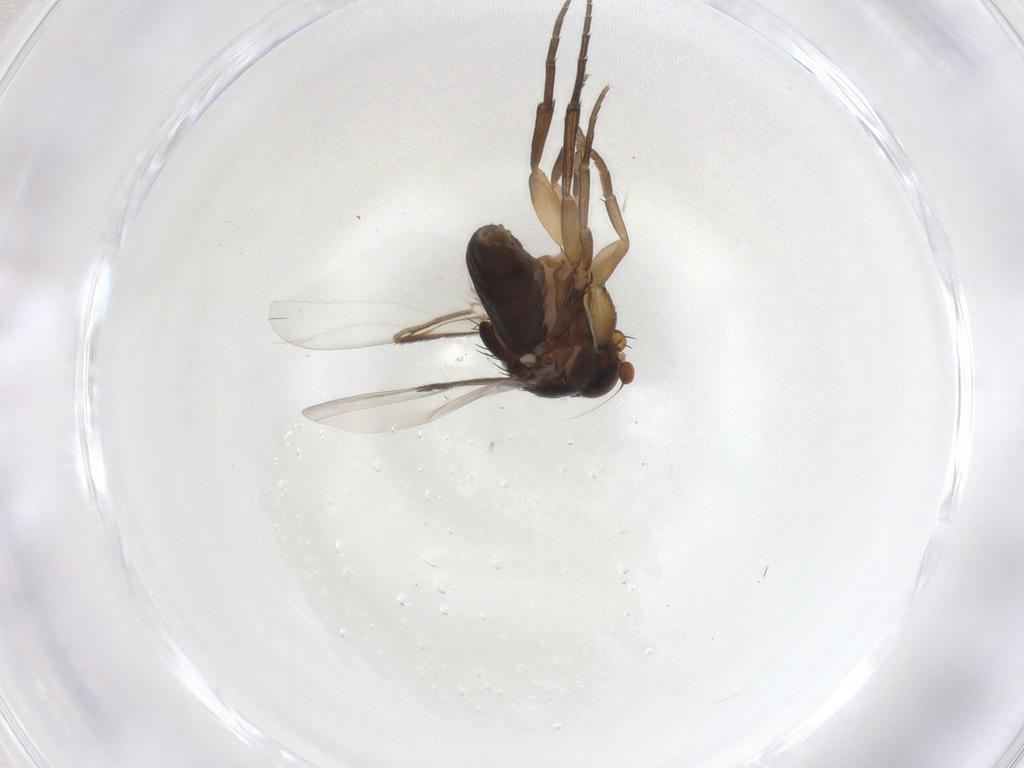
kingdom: Animalia
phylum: Arthropoda
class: Insecta
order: Diptera
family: Phoridae
